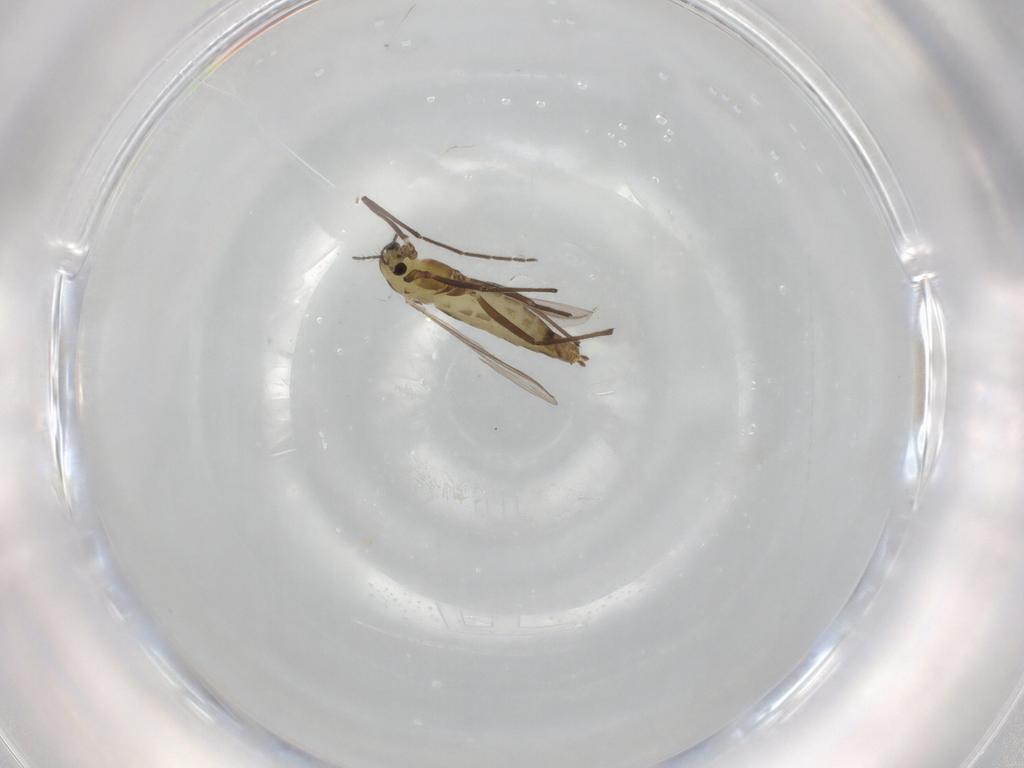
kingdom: Animalia
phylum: Arthropoda
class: Insecta
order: Diptera
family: Chironomidae
